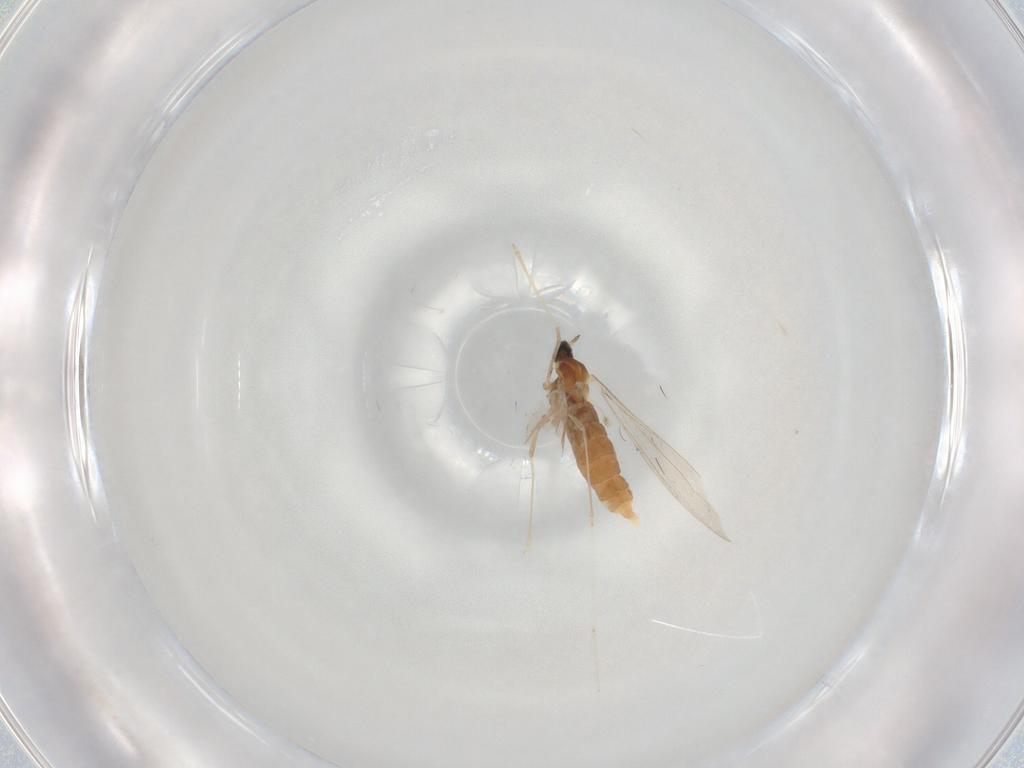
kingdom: Animalia
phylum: Arthropoda
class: Insecta
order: Diptera
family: Cecidomyiidae
